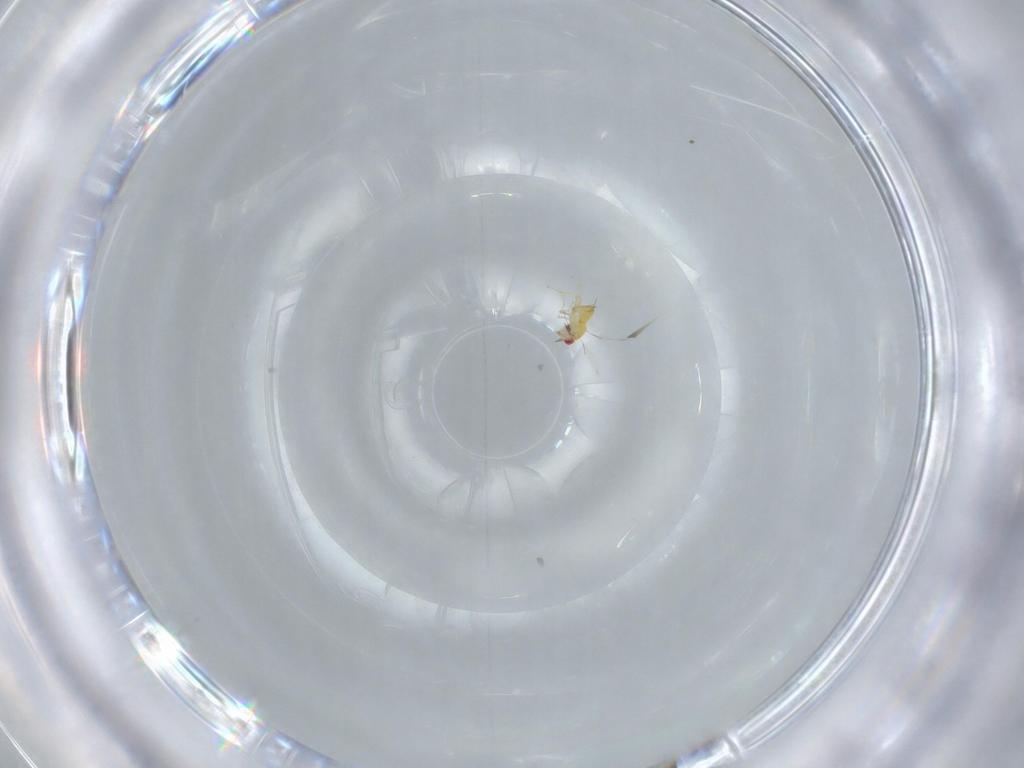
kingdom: Animalia
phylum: Arthropoda
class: Insecta
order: Hymenoptera
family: Trichogrammatidae
